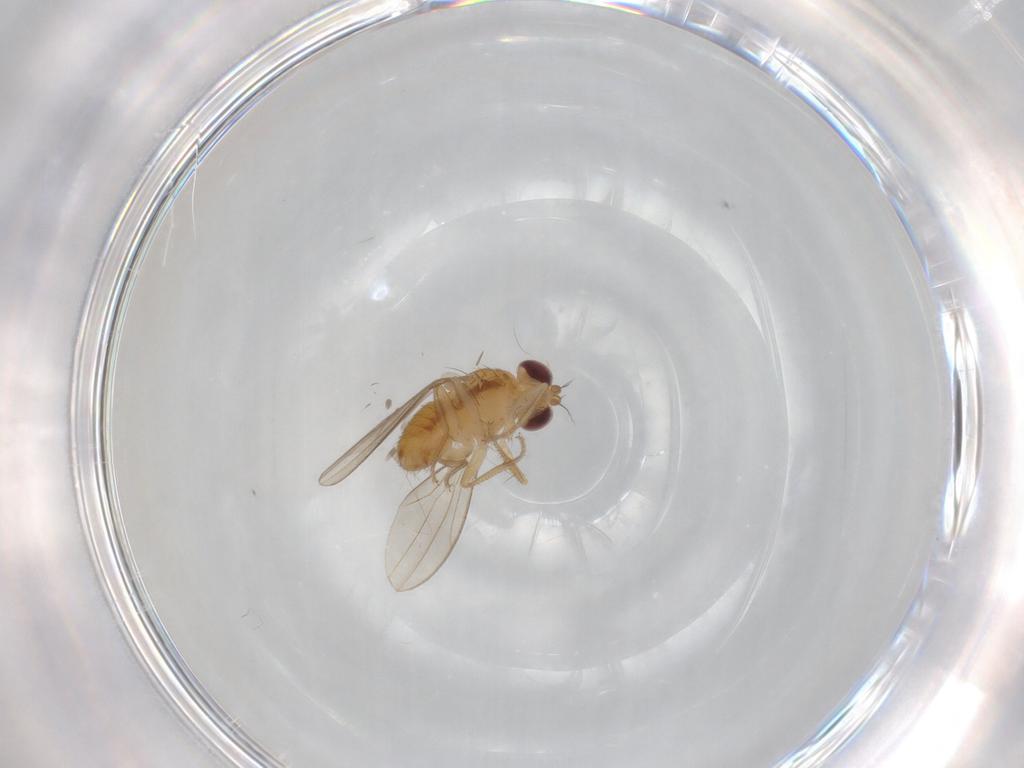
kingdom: Animalia
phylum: Arthropoda
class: Insecta
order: Diptera
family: Drosophilidae
